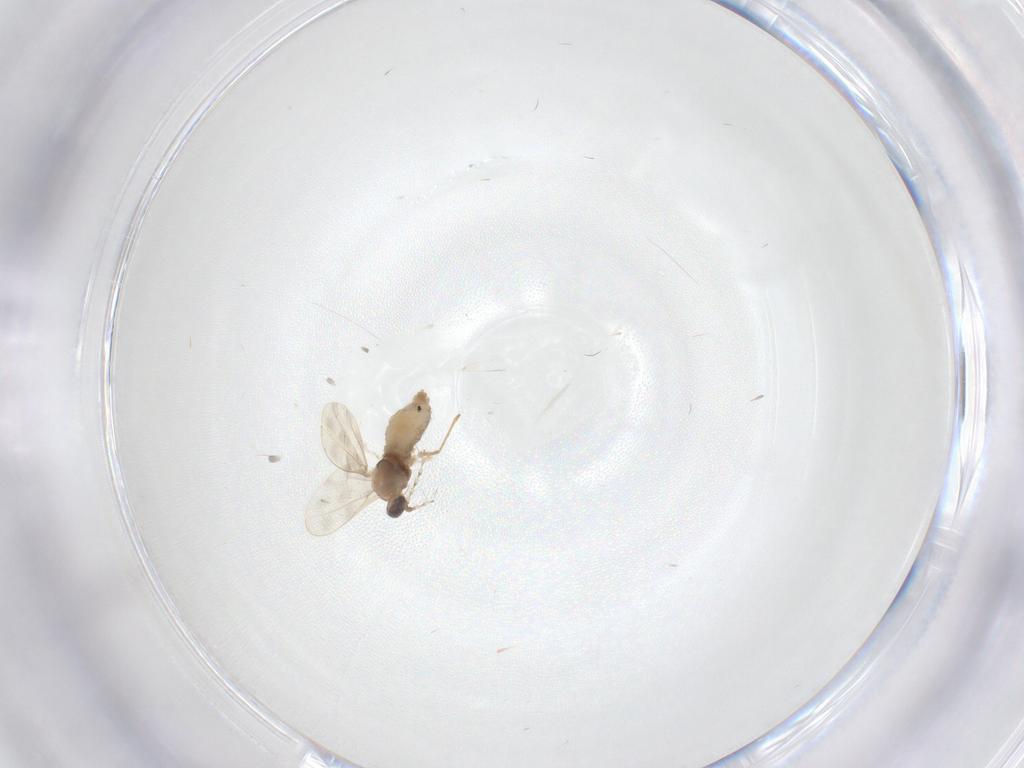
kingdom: Animalia
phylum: Arthropoda
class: Insecta
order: Diptera
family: Cecidomyiidae
